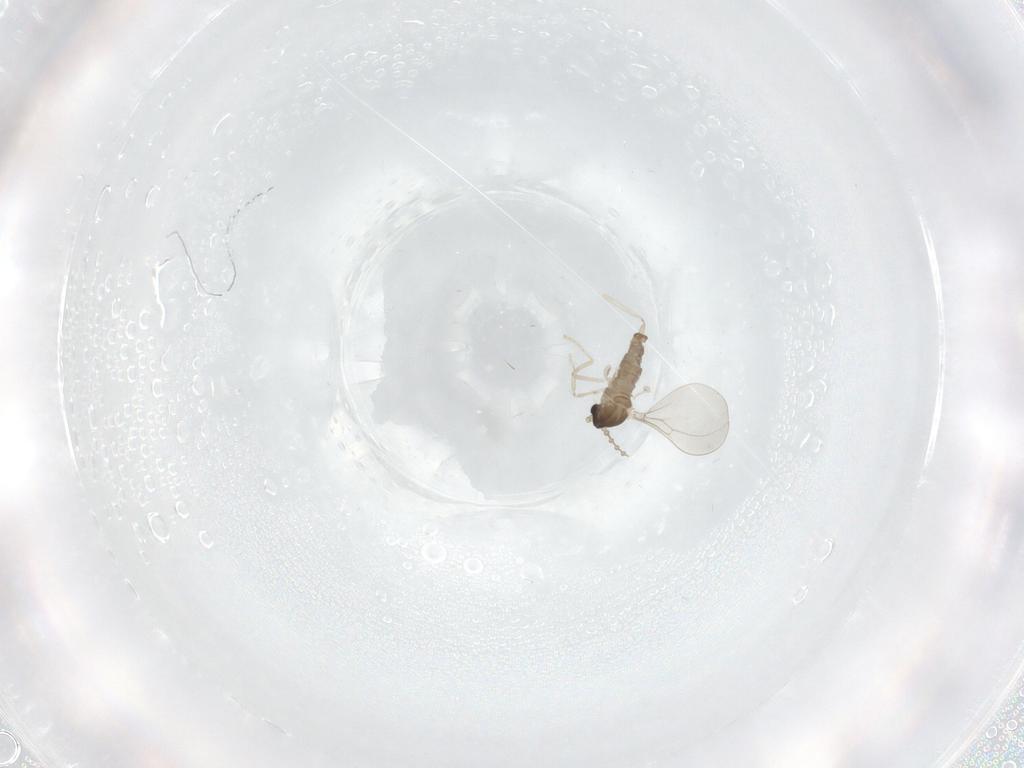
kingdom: Animalia
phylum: Arthropoda
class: Insecta
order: Diptera
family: Cecidomyiidae
